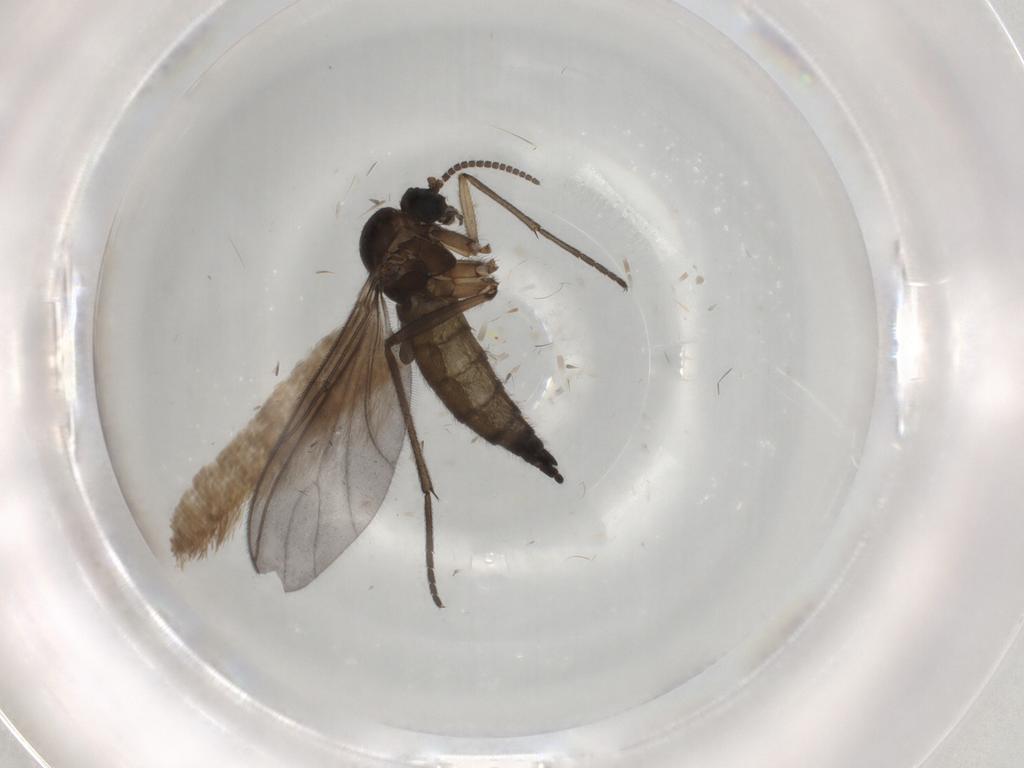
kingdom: Animalia
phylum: Arthropoda
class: Insecta
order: Diptera
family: Sciaridae
